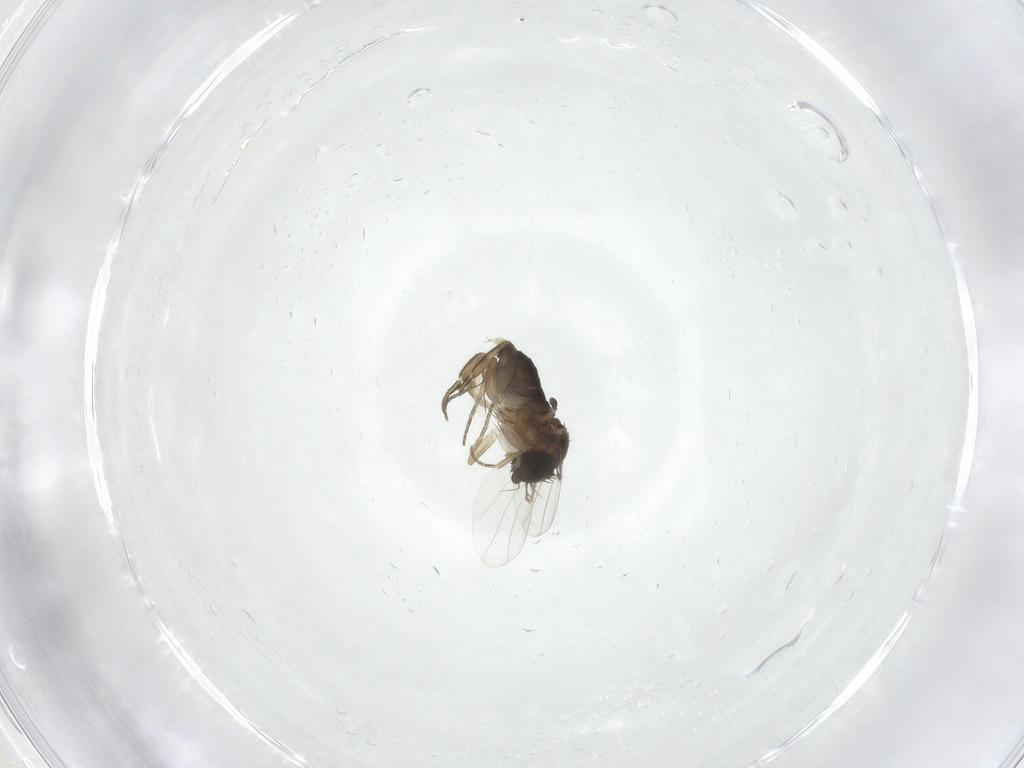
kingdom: Animalia
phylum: Arthropoda
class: Insecta
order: Diptera
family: Phoridae
